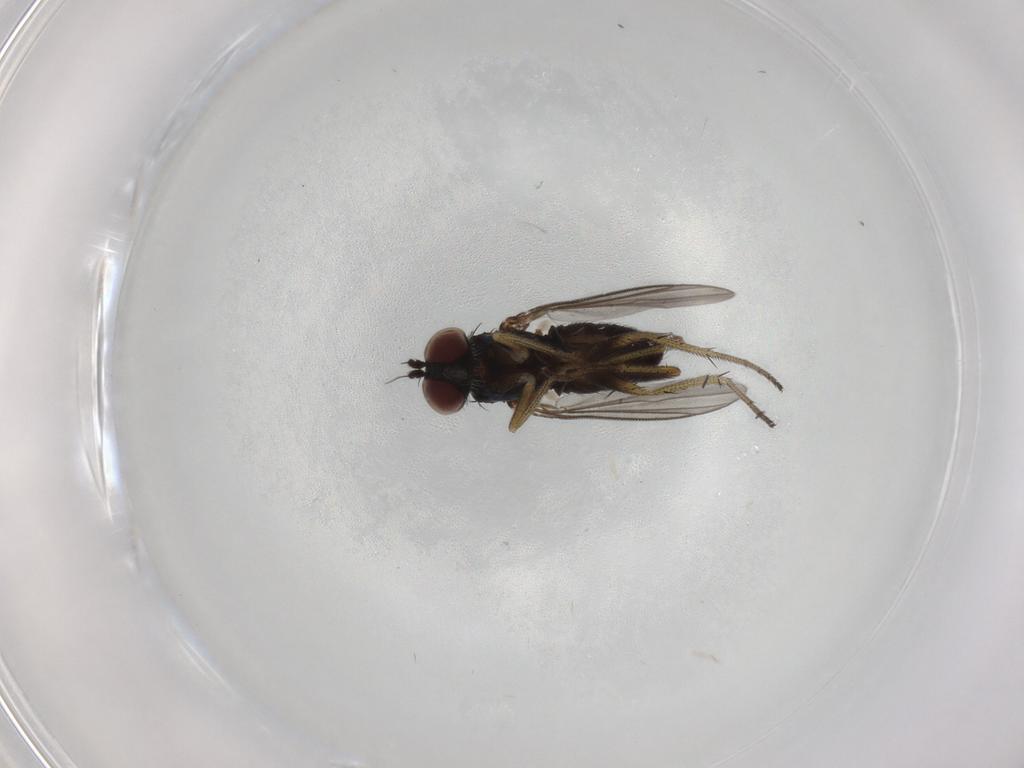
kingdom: Animalia
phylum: Arthropoda
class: Insecta
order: Diptera
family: Dolichopodidae
